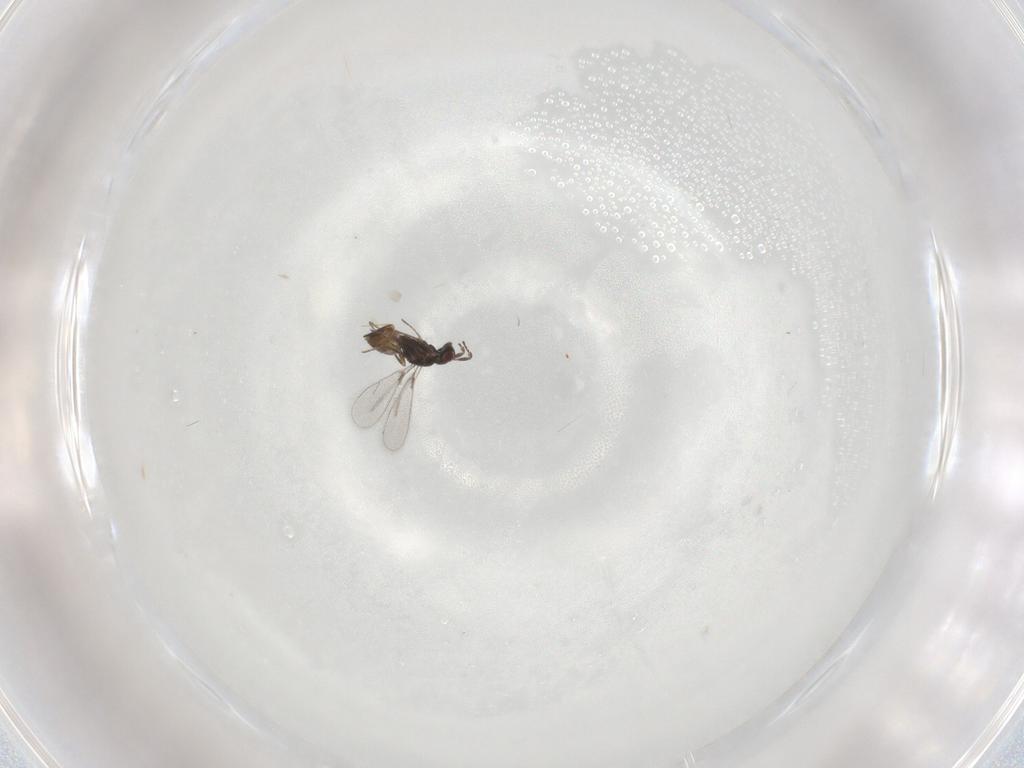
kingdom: Animalia
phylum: Arthropoda
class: Insecta
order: Hymenoptera
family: Mymaridae
